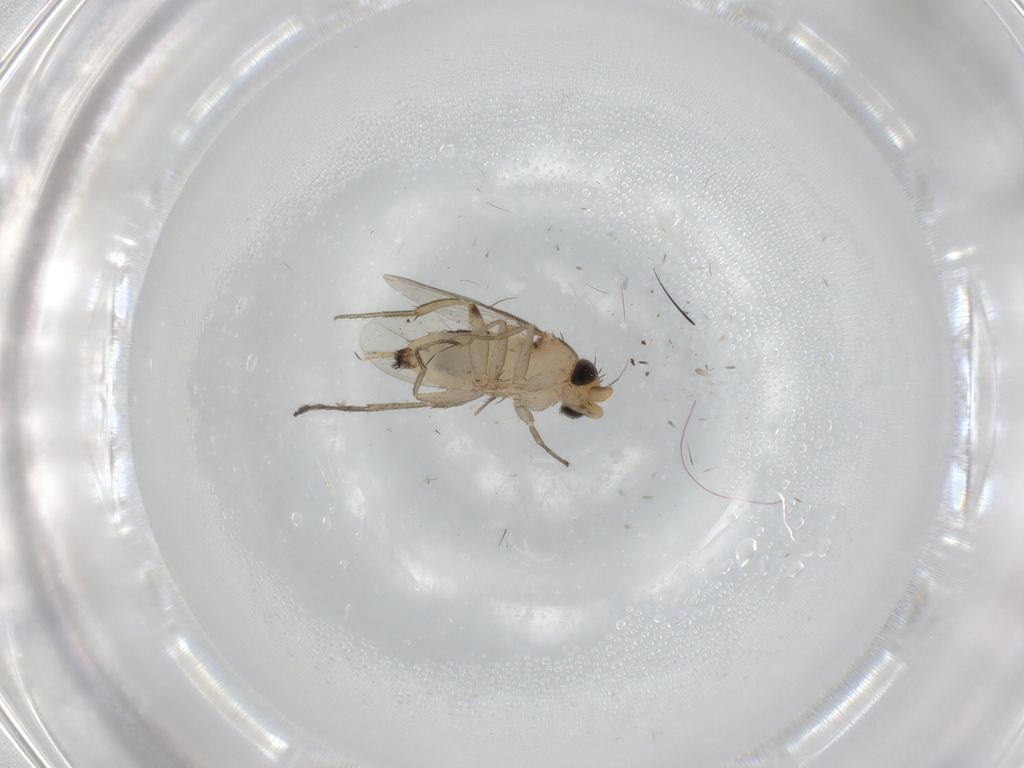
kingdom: Animalia
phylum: Arthropoda
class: Insecta
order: Diptera
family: Phoridae
